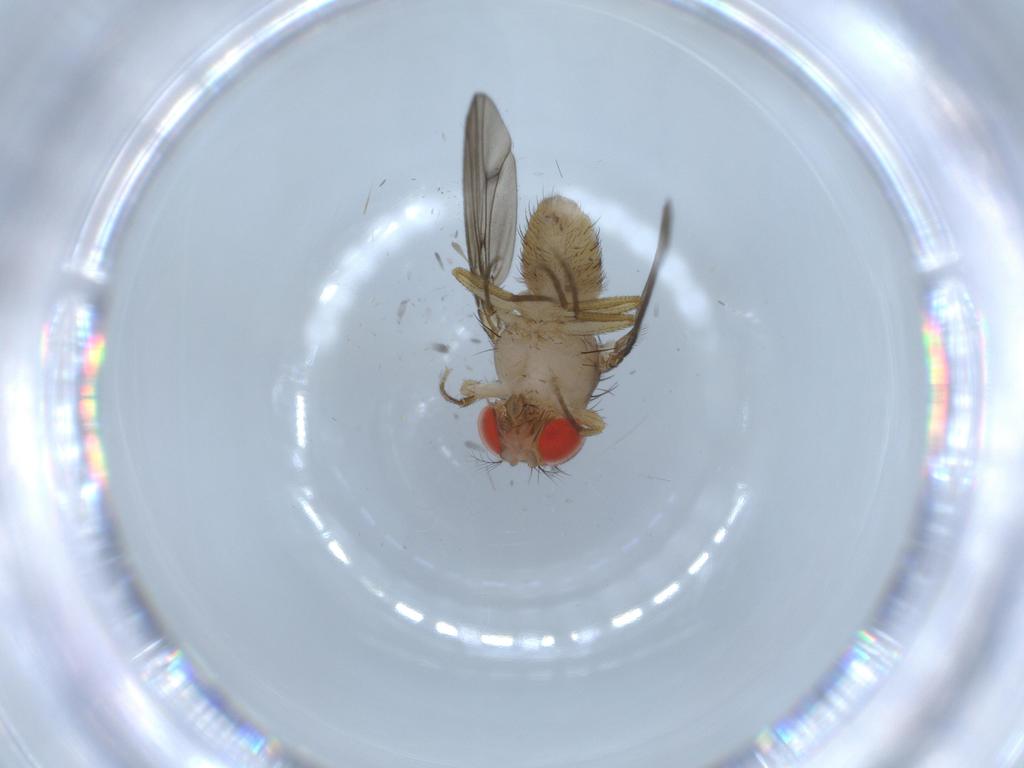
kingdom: Animalia
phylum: Arthropoda
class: Insecta
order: Diptera
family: Drosophilidae
